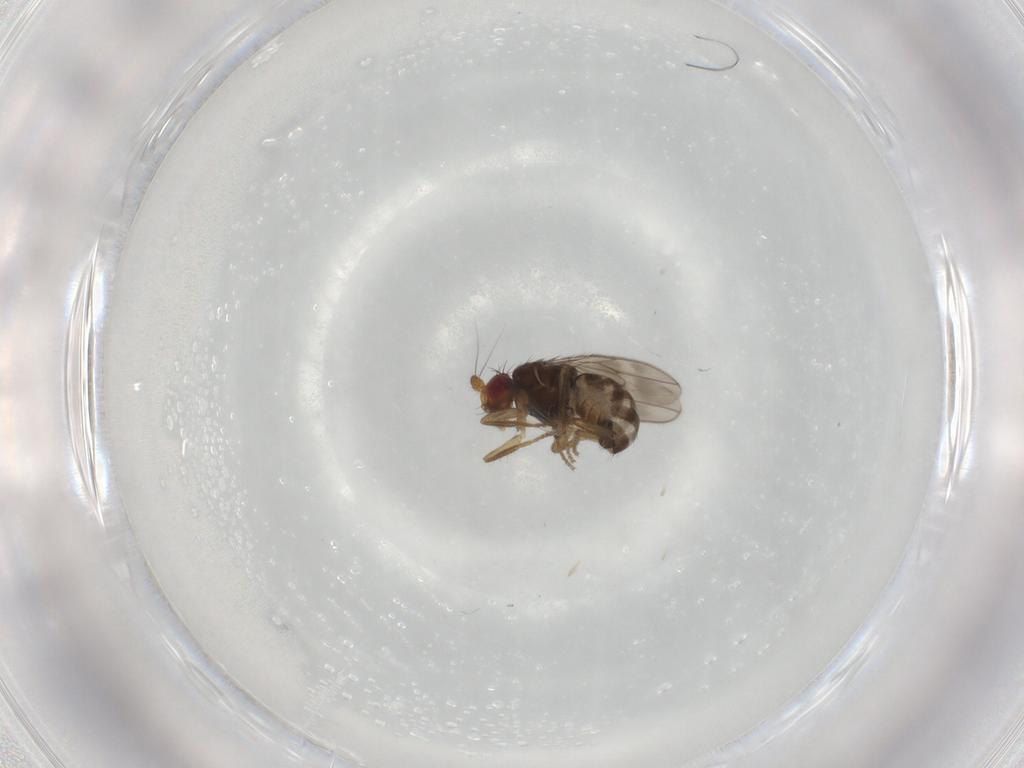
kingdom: Animalia
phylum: Arthropoda
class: Insecta
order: Diptera
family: Sphaeroceridae
